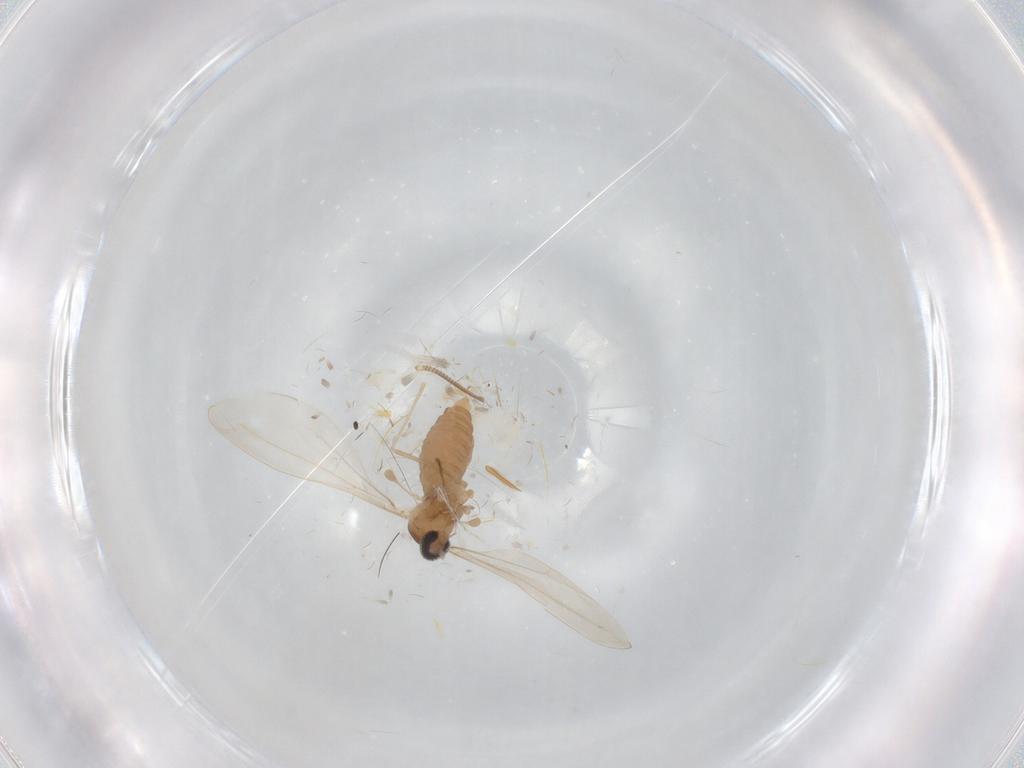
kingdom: Animalia
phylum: Arthropoda
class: Insecta
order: Diptera
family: Cecidomyiidae
